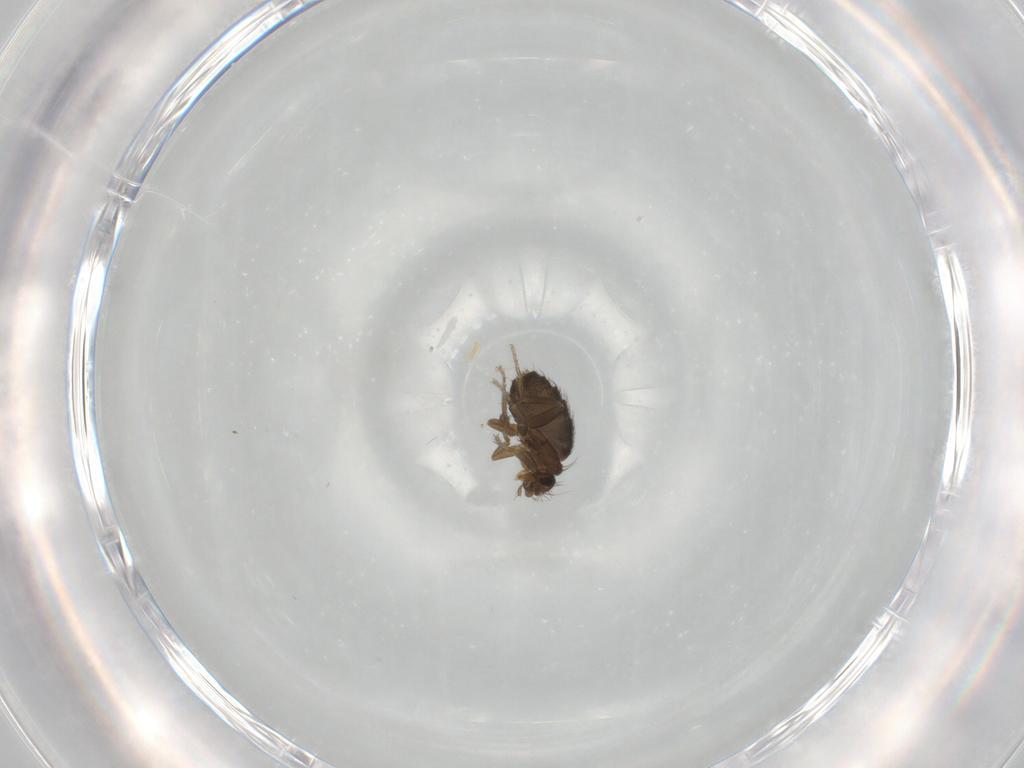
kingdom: Animalia
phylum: Arthropoda
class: Insecta
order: Diptera
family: Phoridae
